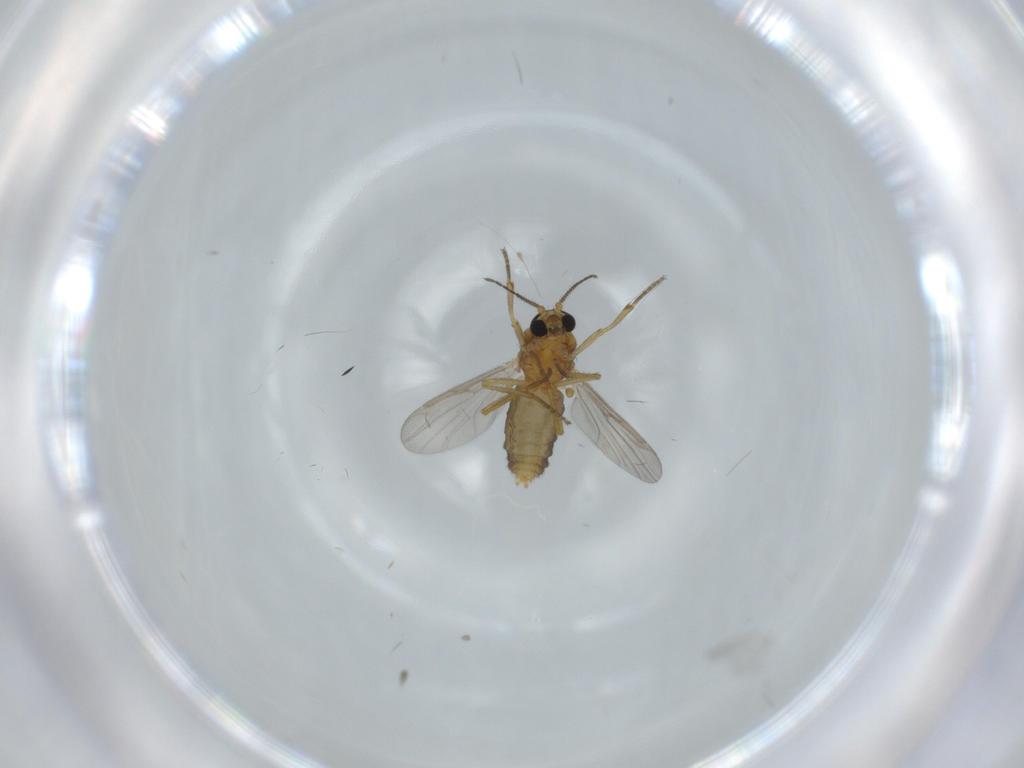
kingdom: Animalia
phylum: Arthropoda
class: Insecta
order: Diptera
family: Ceratopogonidae
